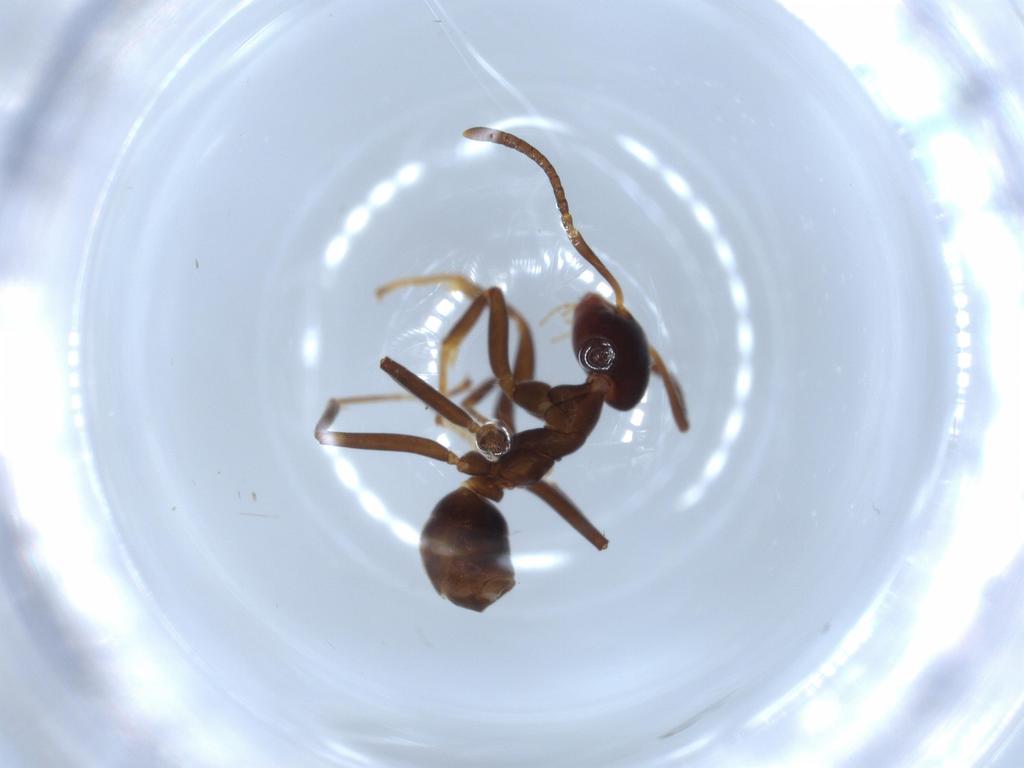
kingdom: Animalia
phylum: Arthropoda
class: Insecta
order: Hymenoptera
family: Formicidae
